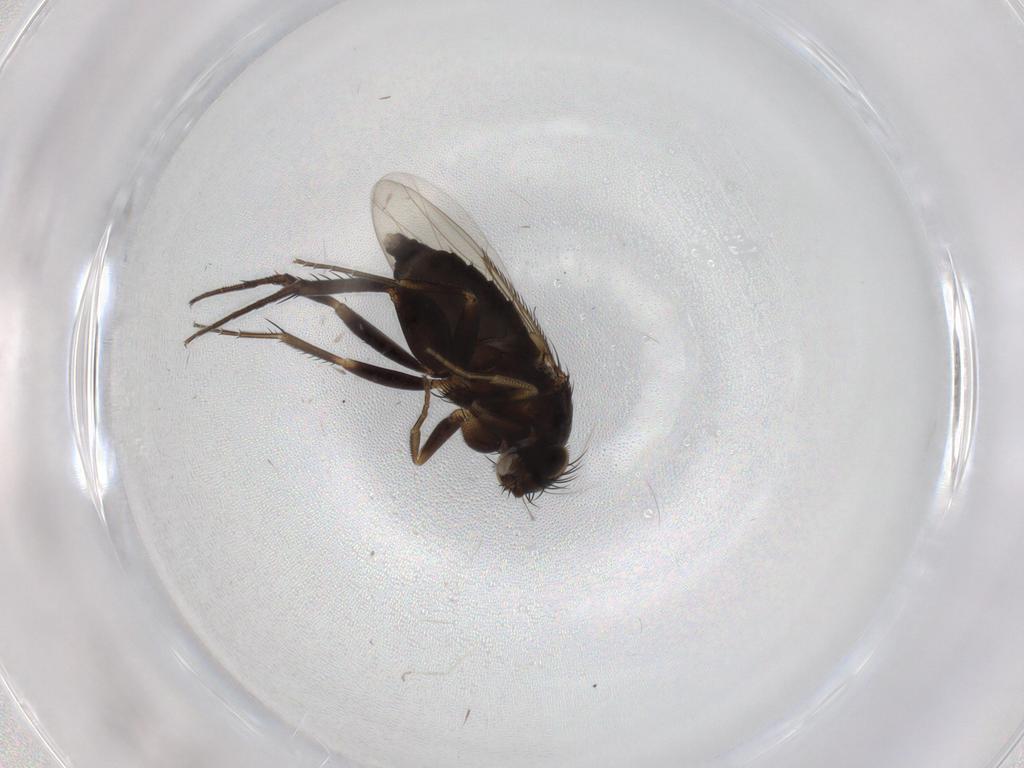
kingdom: Animalia
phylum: Arthropoda
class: Insecta
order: Diptera
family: Phoridae
